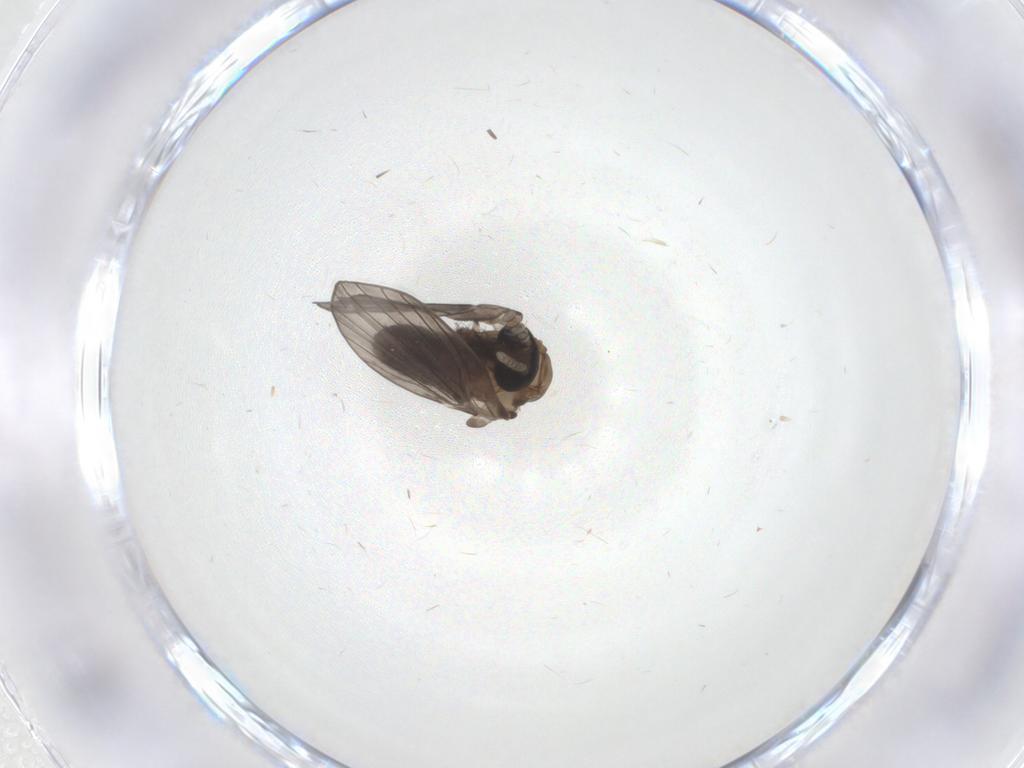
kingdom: Animalia
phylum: Arthropoda
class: Insecta
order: Diptera
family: Psychodidae
